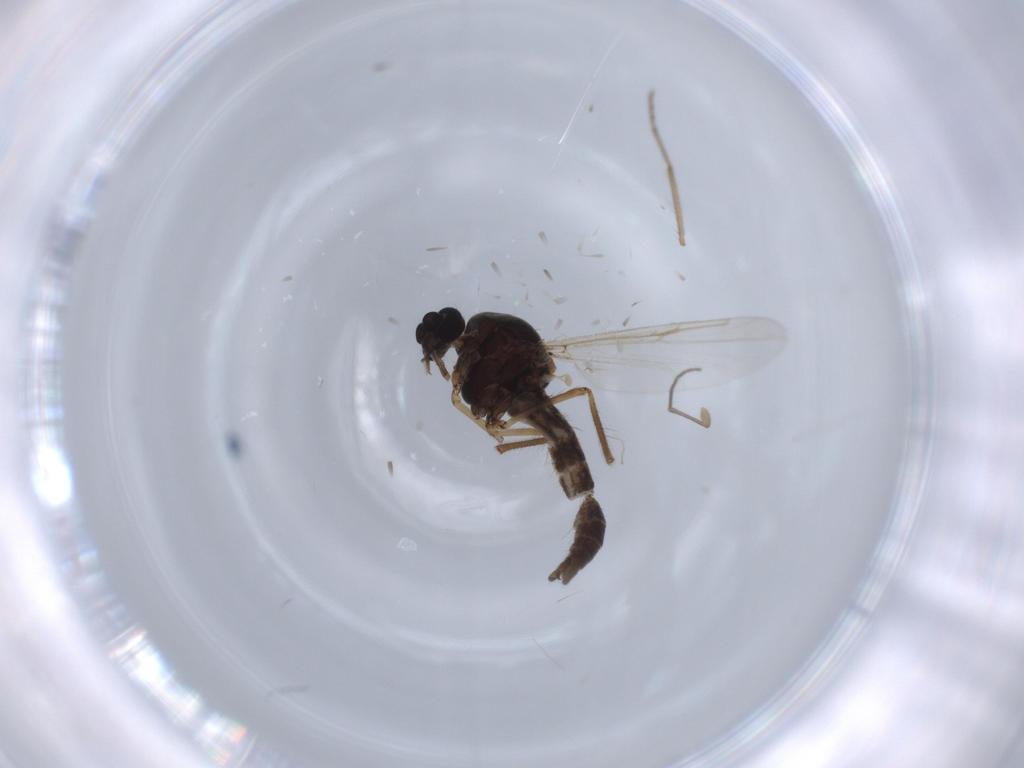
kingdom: Animalia
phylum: Arthropoda
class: Insecta
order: Diptera
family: Ceratopogonidae
